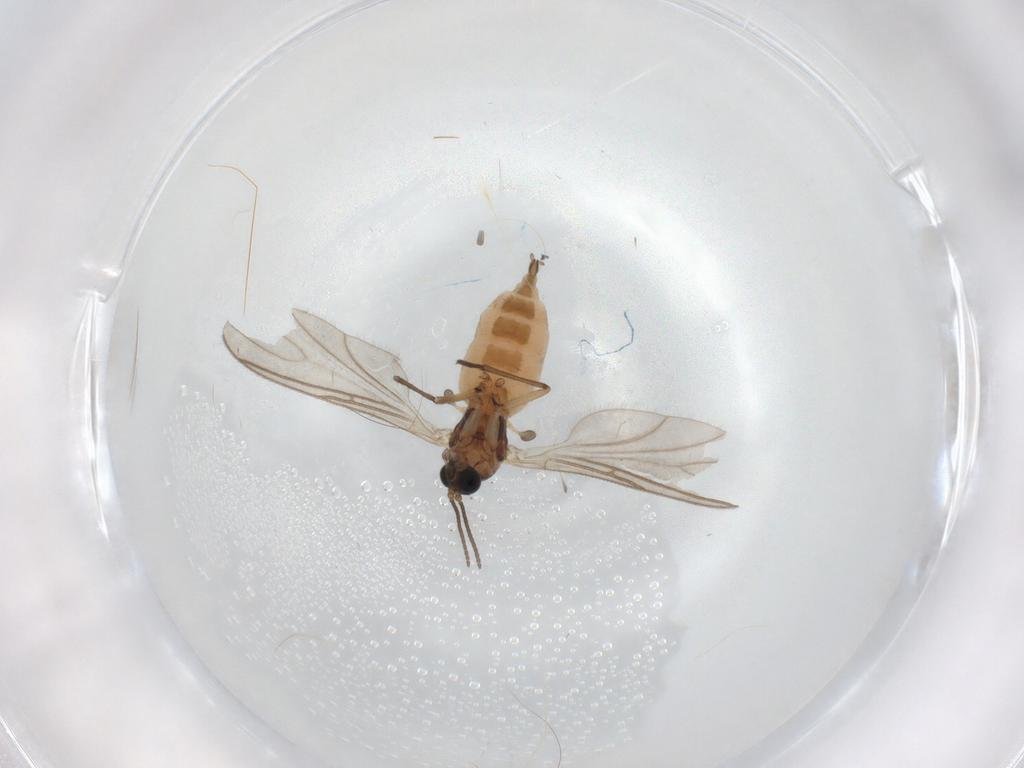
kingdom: Animalia
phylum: Arthropoda
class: Insecta
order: Diptera
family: Sciaridae
